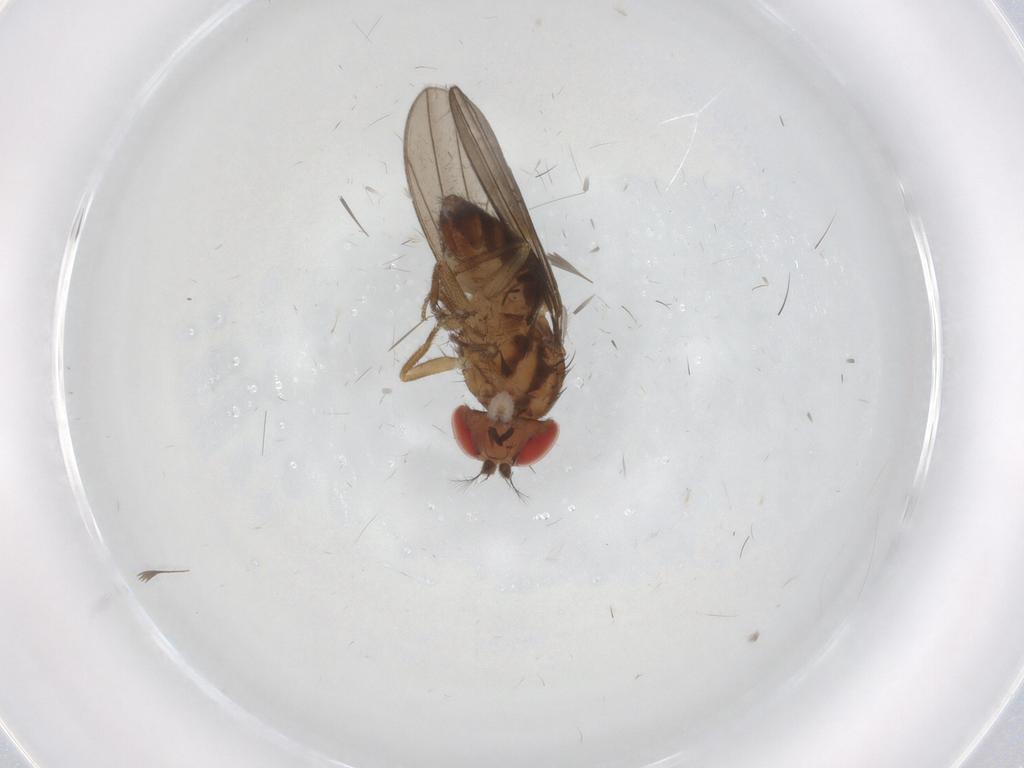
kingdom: Animalia
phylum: Arthropoda
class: Insecta
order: Diptera
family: Drosophilidae
